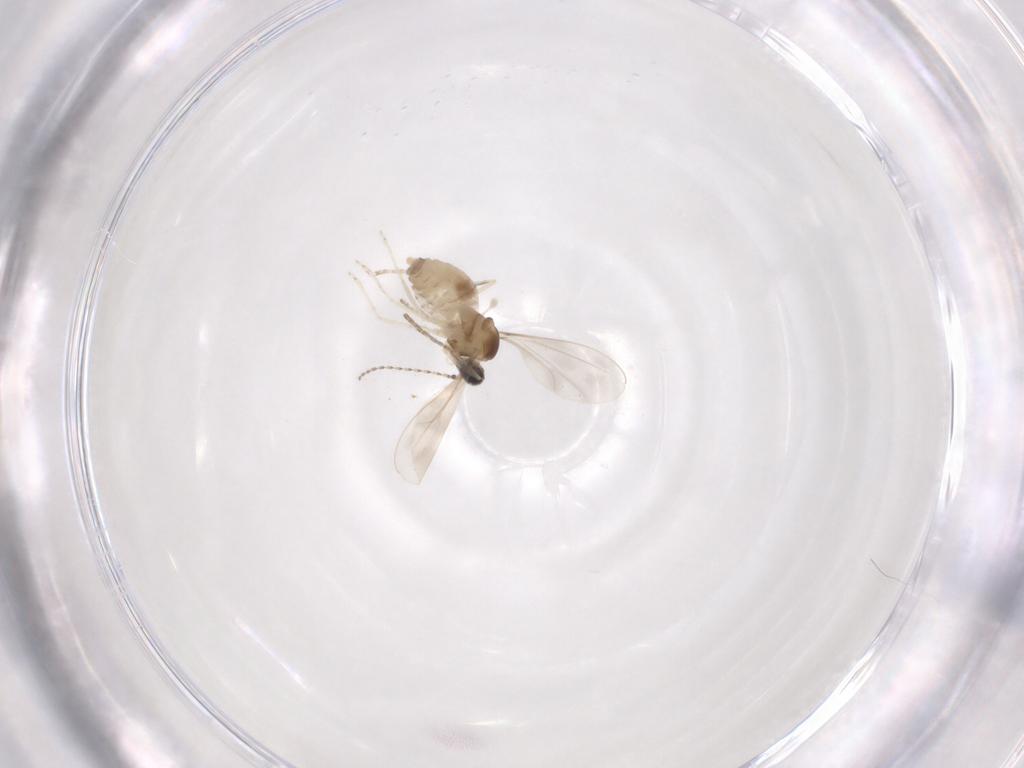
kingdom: Animalia
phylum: Arthropoda
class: Insecta
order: Diptera
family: Cecidomyiidae
